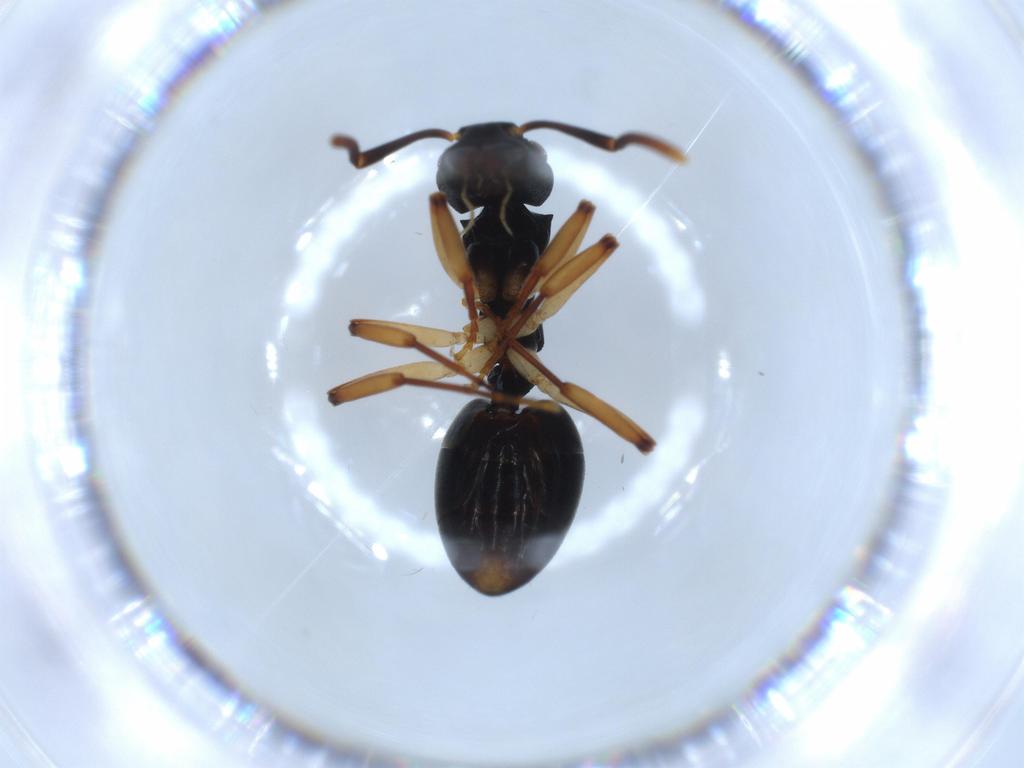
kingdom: Animalia
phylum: Arthropoda
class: Insecta
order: Hymenoptera
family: Formicidae
